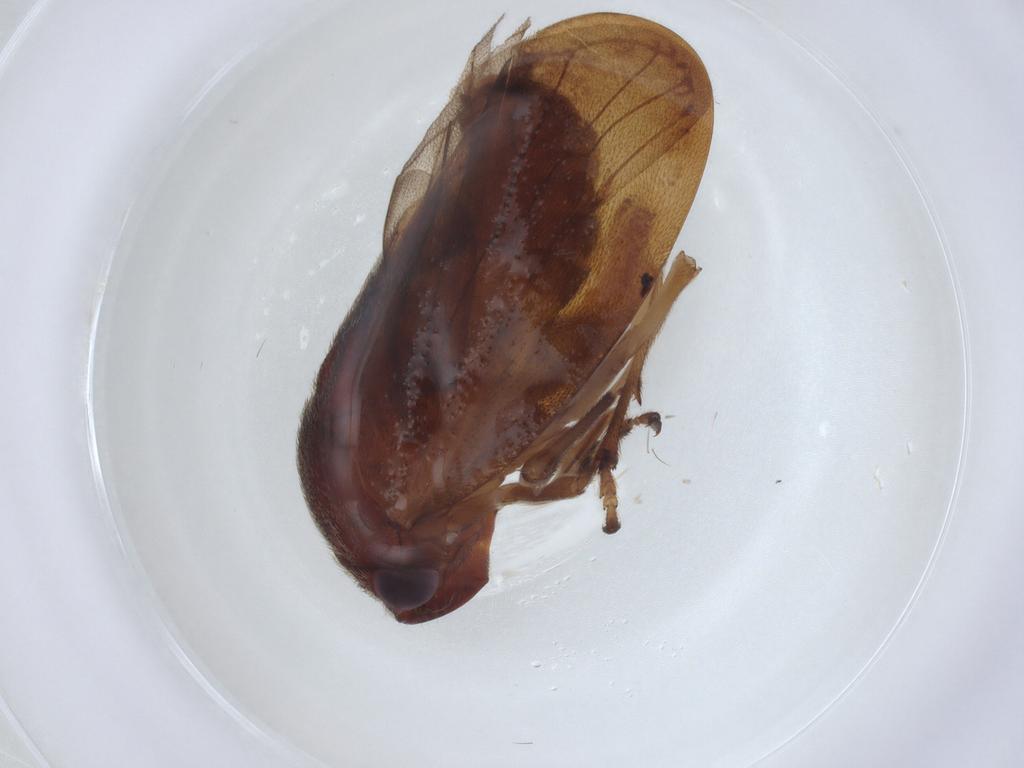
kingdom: Animalia
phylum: Arthropoda
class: Insecta
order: Hemiptera
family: Cercopidae
